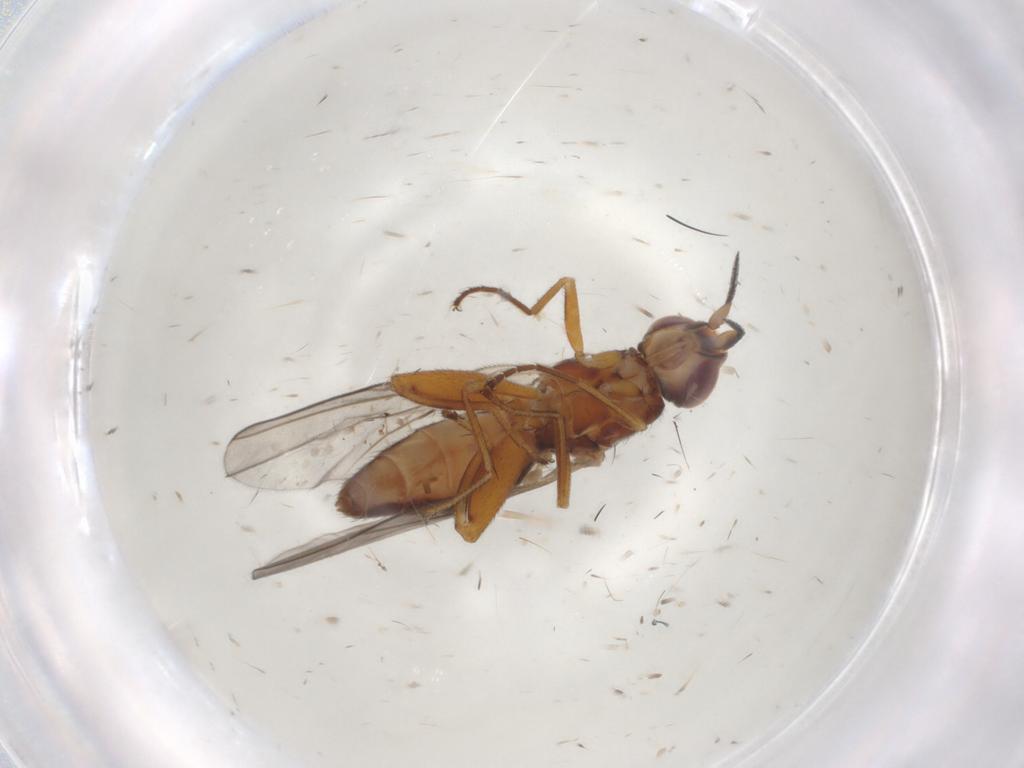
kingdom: Animalia
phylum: Arthropoda
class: Insecta
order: Diptera
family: Chloropidae
